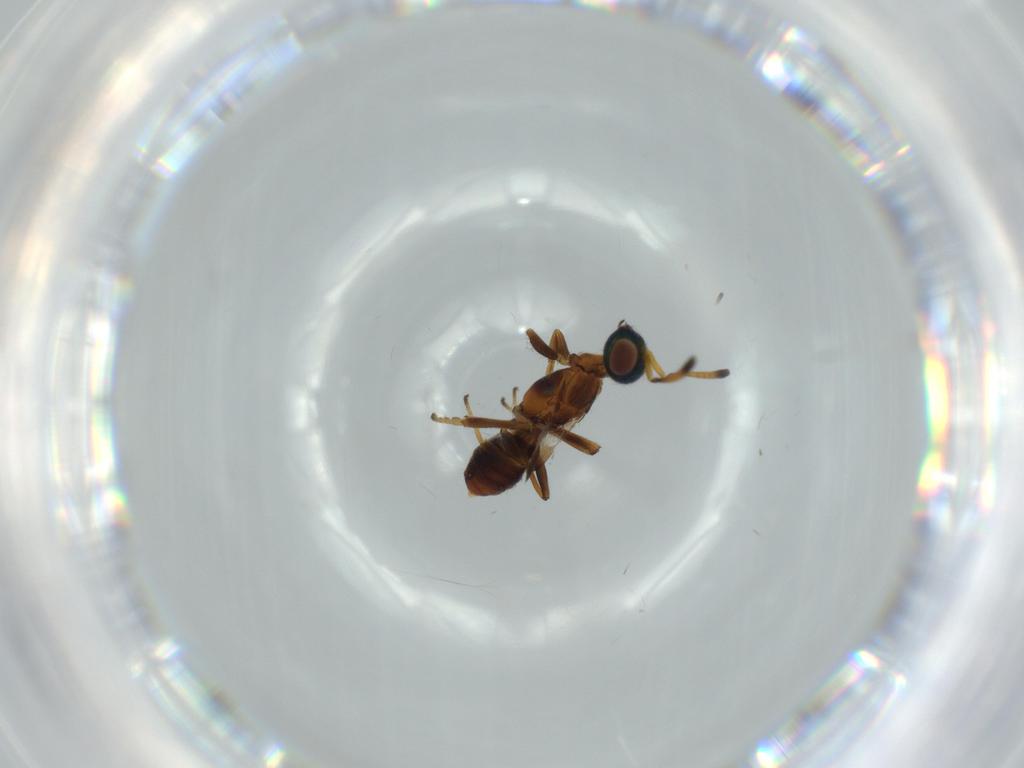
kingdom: Animalia
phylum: Arthropoda
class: Insecta
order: Hymenoptera
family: Eupelmidae
